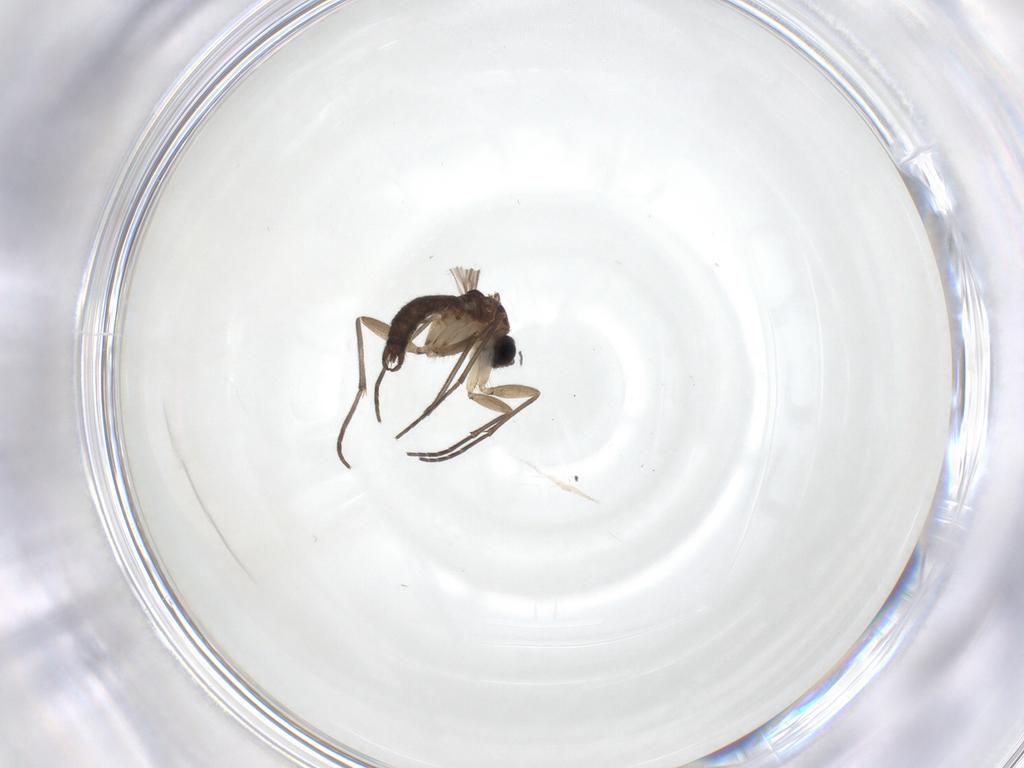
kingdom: Animalia
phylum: Arthropoda
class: Insecta
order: Diptera
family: Sciaridae
